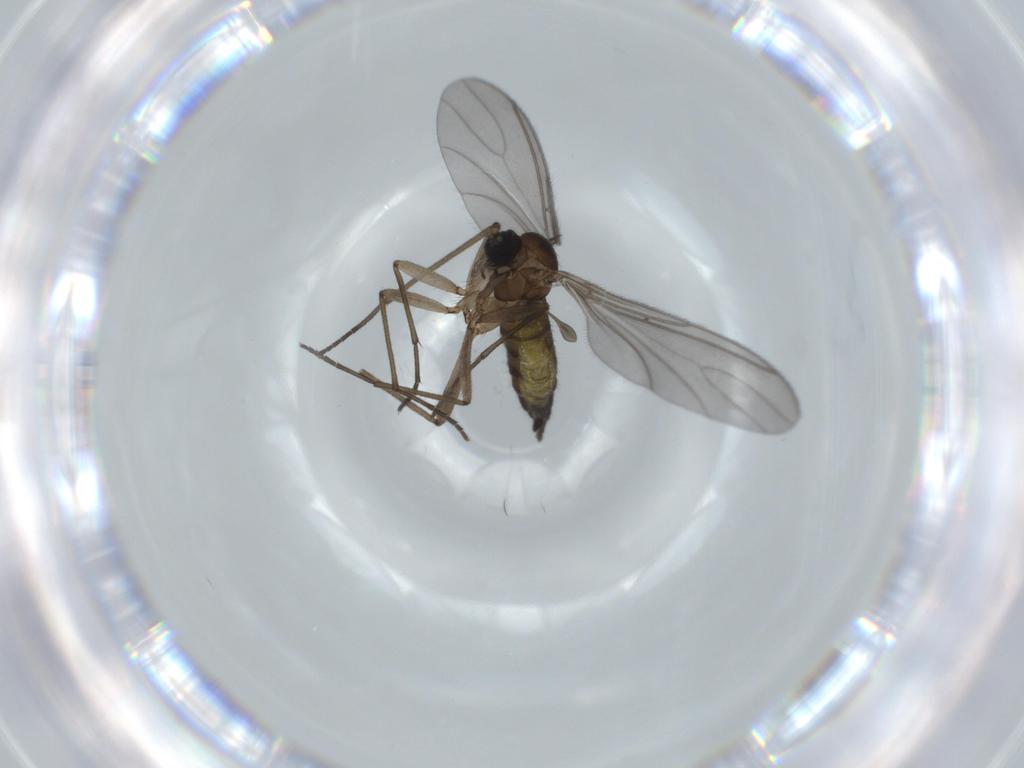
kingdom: Animalia
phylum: Arthropoda
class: Insecta
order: Diptera
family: Sciaridae
